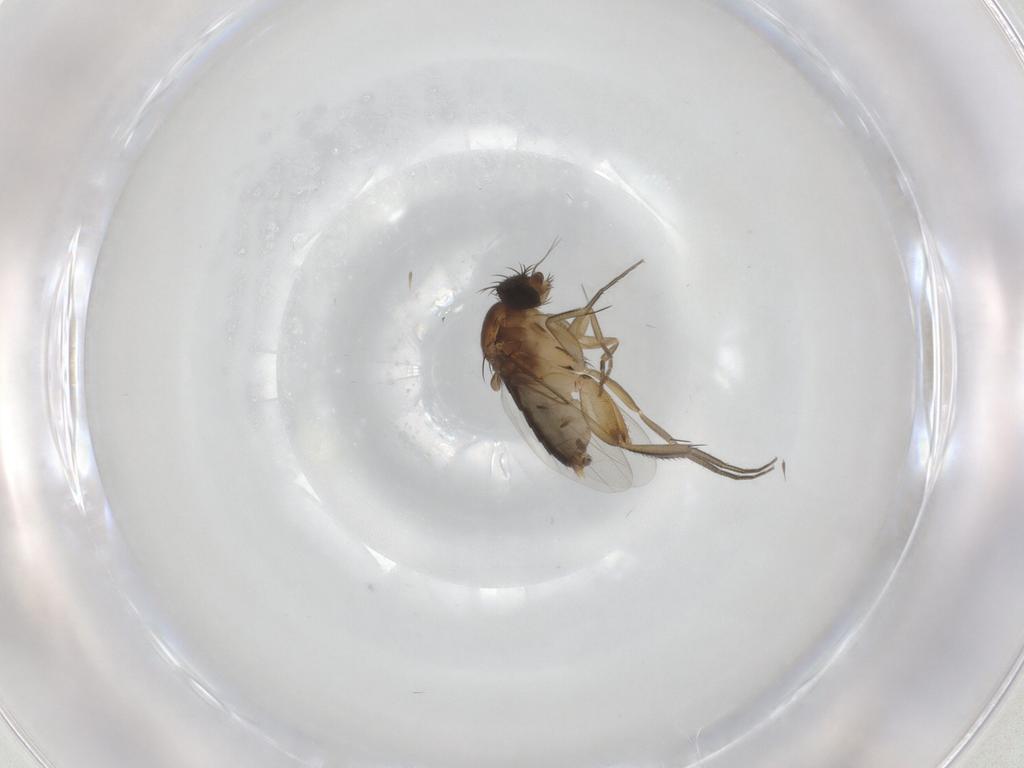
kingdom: Animalia
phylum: Arthropoda
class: Insecta
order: Diptera
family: Phoridae
